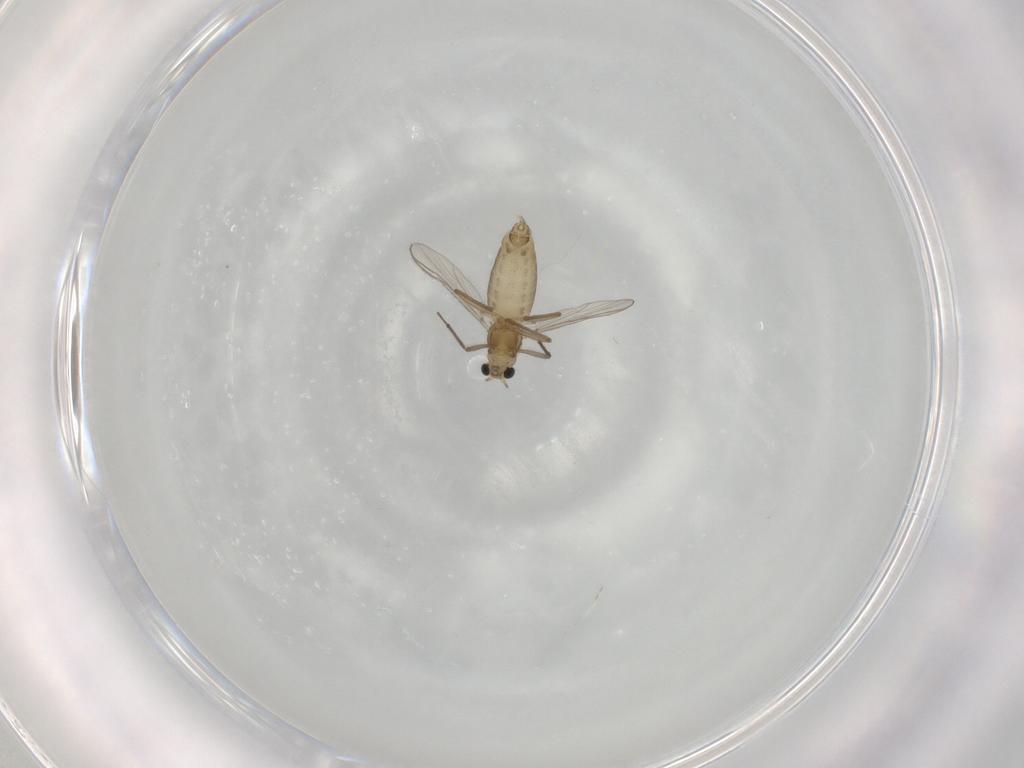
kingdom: Animalia
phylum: Arthropoda
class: Insecta
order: Diptera
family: Chironomidae
